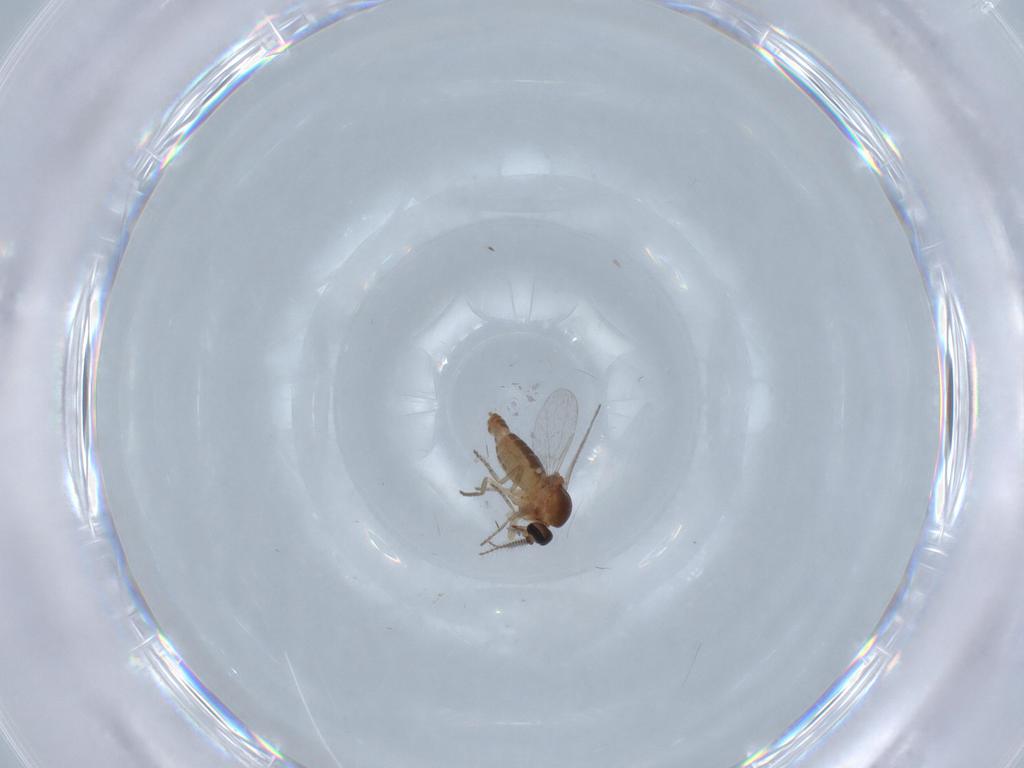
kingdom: Animalia
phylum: Arthropoda
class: Insecta
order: Diptera
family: Ceratopogonidae
